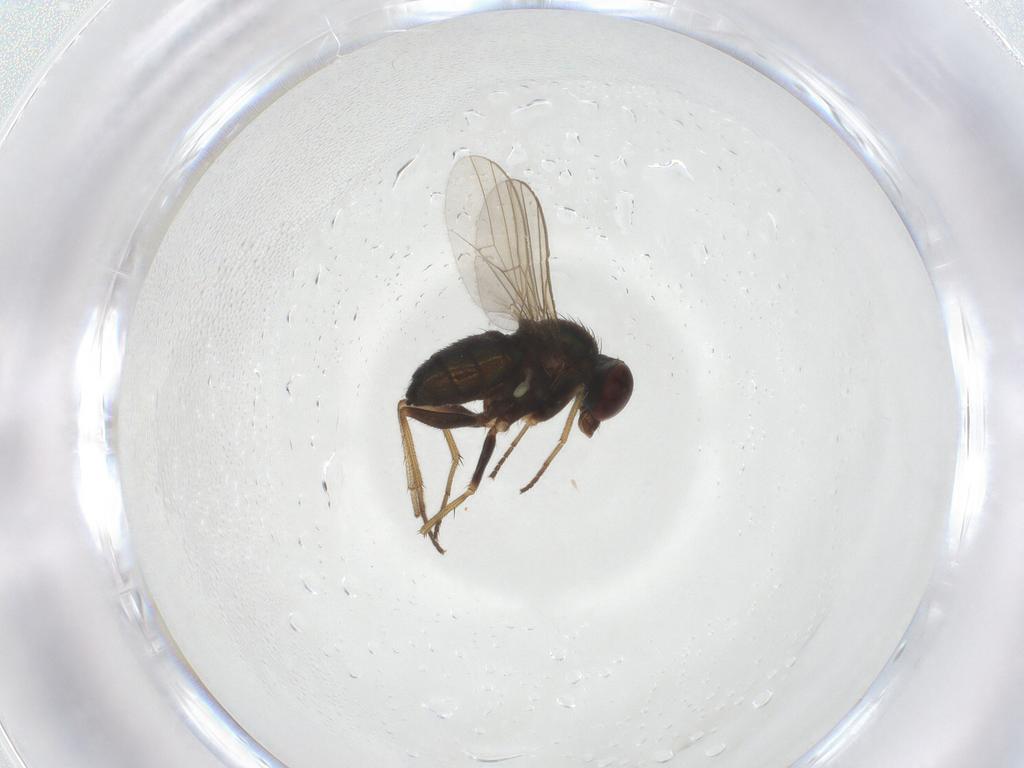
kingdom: Animalia
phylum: Arthropoda
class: Insecta
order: Diptera
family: Dolichopodidae
